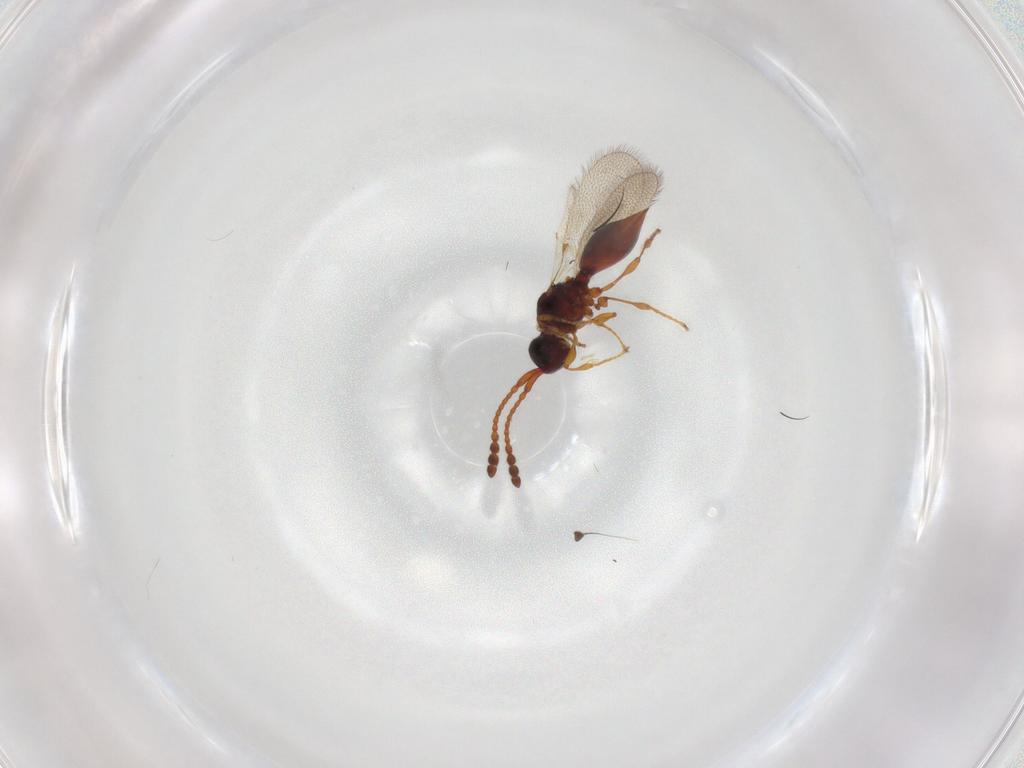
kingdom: Animalia
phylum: Arthropoda
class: Insecta
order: Hymenoptera
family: Diapriidae
